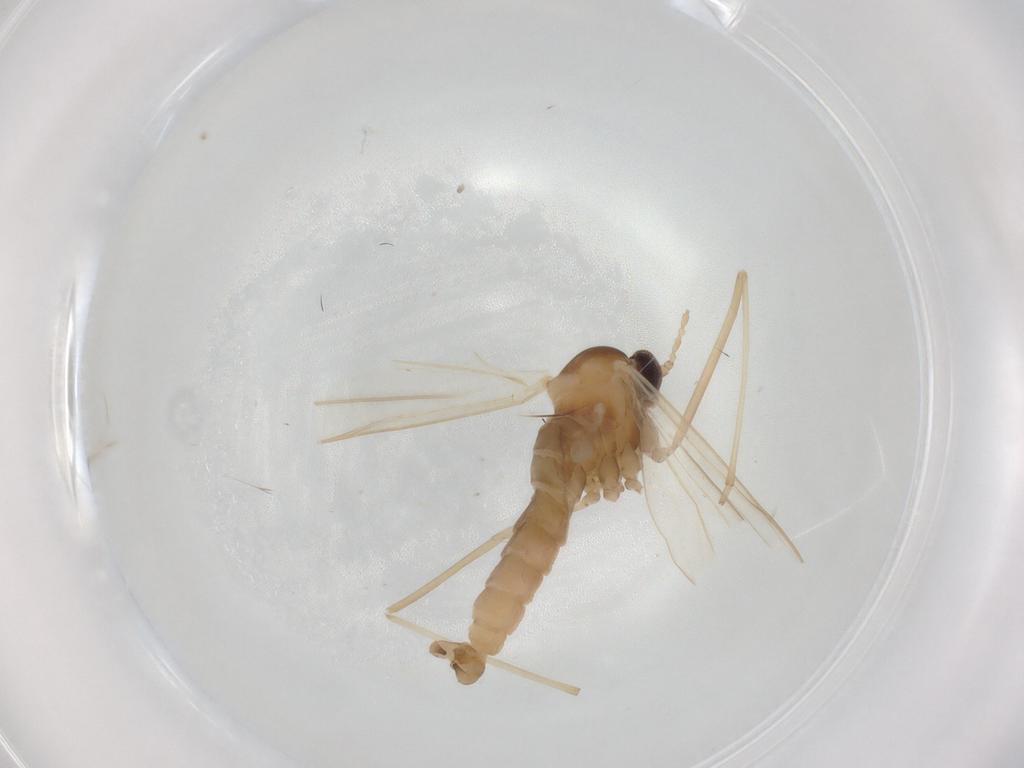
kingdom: Animalia
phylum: Arthropoda
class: Insecta
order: Diptera
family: Cecidomyiidae
